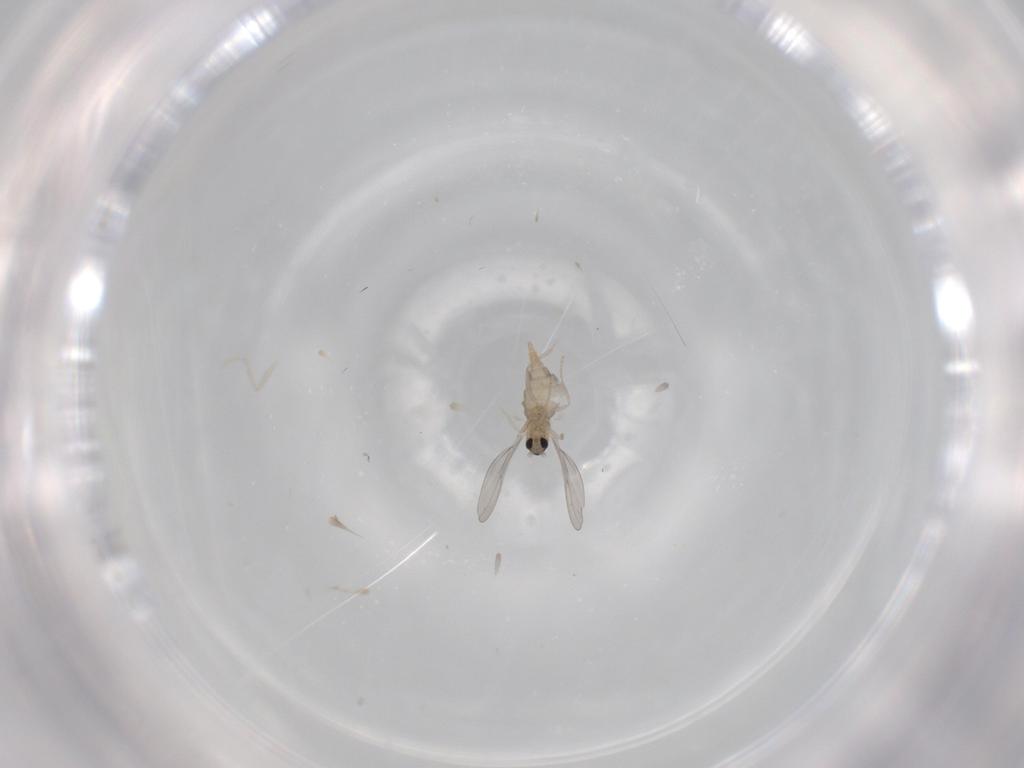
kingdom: Animalia
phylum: Arthropoda
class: Insecta
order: Diptera
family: Cecidomyiidae
